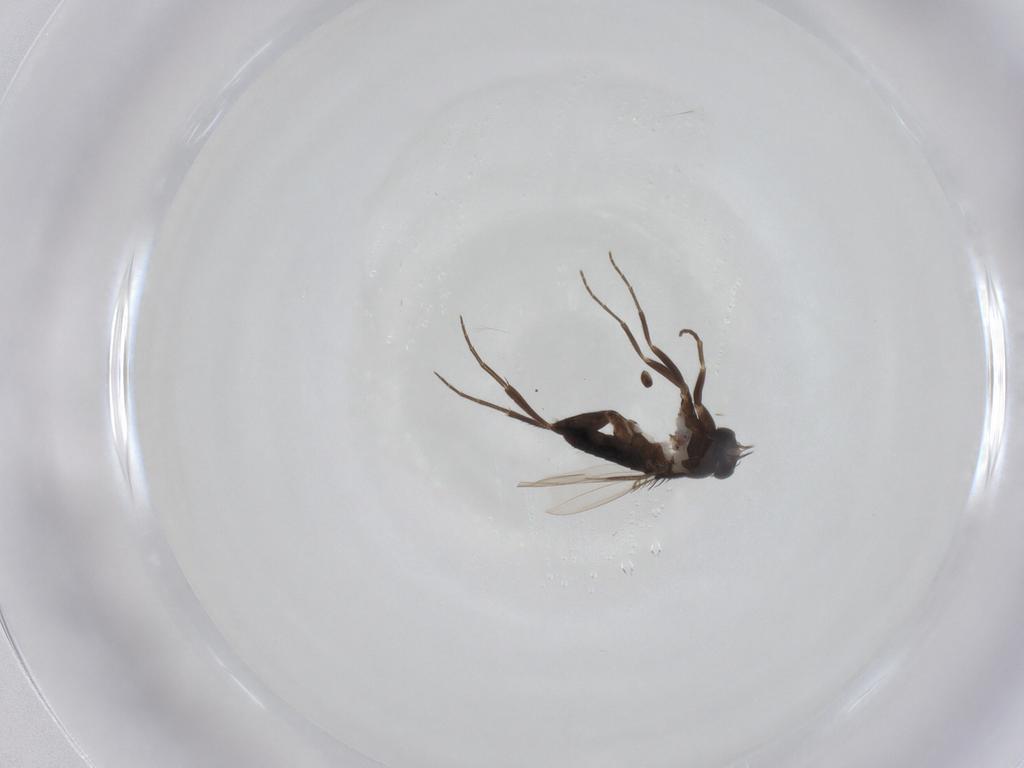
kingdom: Animalia
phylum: Arthropoda
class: Insecta
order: Diptera
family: Phoridae
